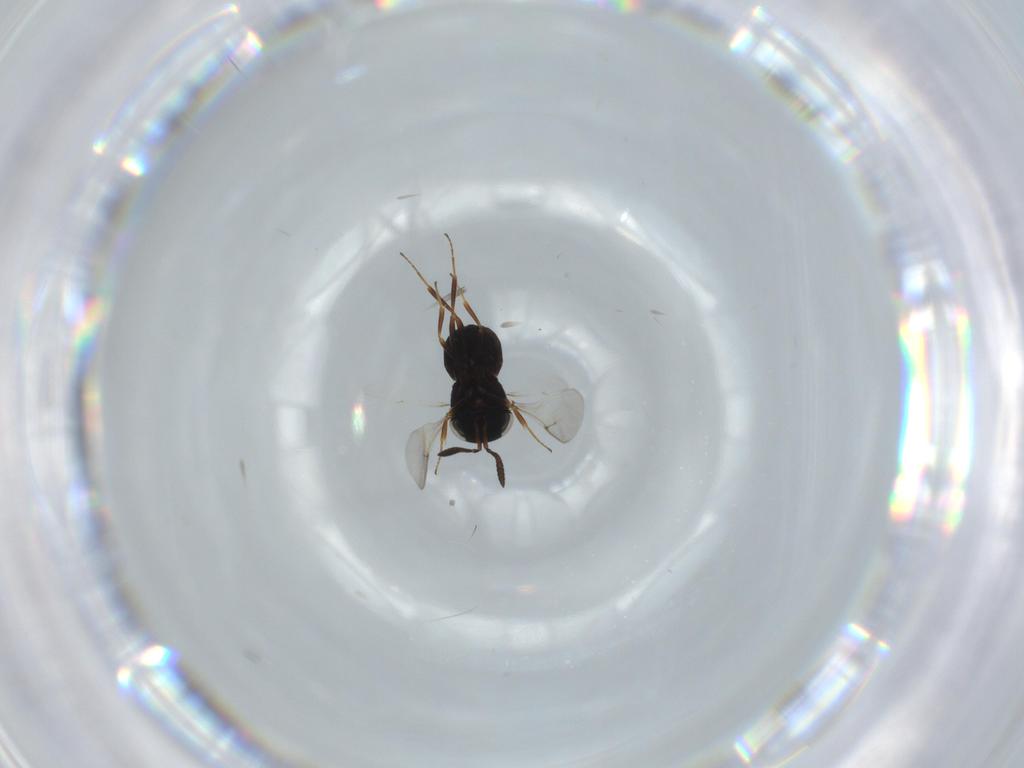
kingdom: Animalia
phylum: Arthropoda
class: Insecta
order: Hymenoptera
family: Scelionidae
